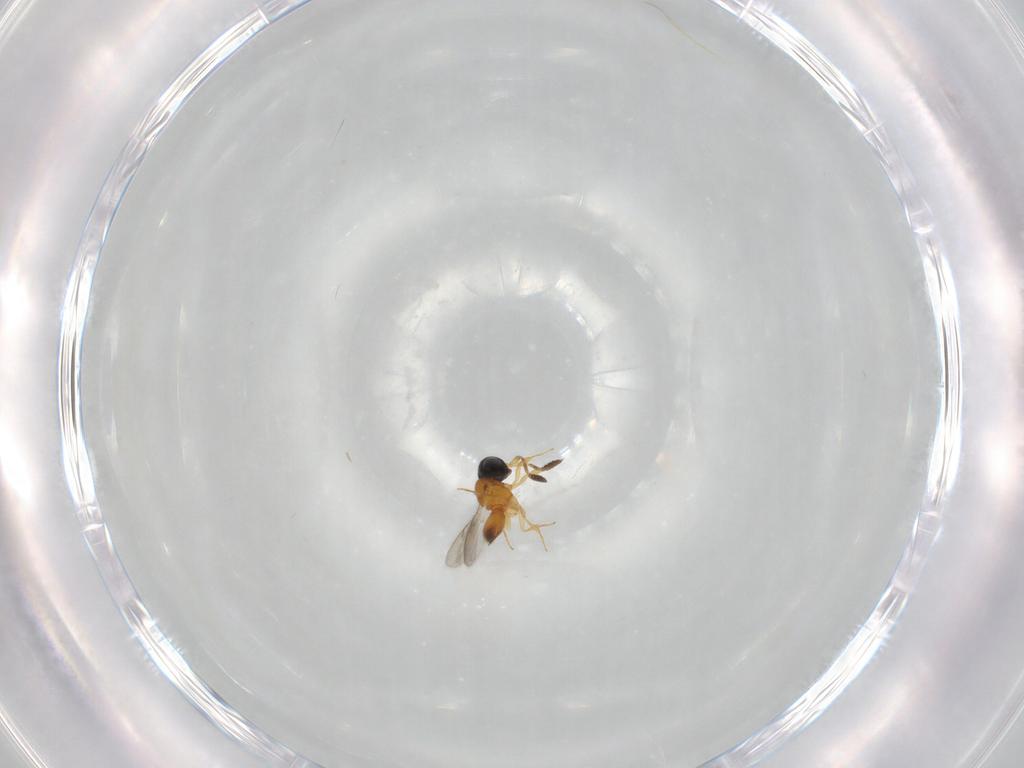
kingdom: Animalia
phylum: Arthropoda
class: Insecta
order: Hymenoptera
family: Scelionidae
